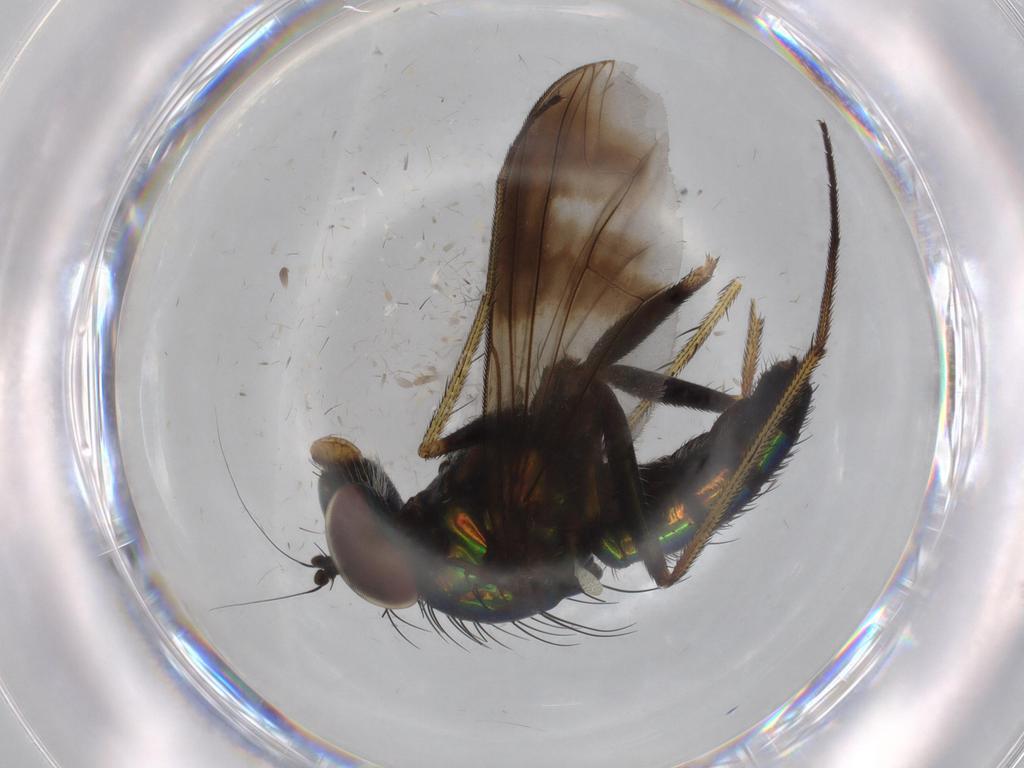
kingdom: Animalia
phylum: Arthropoda
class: Insecta
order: Diptera
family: Dolichopodidae
